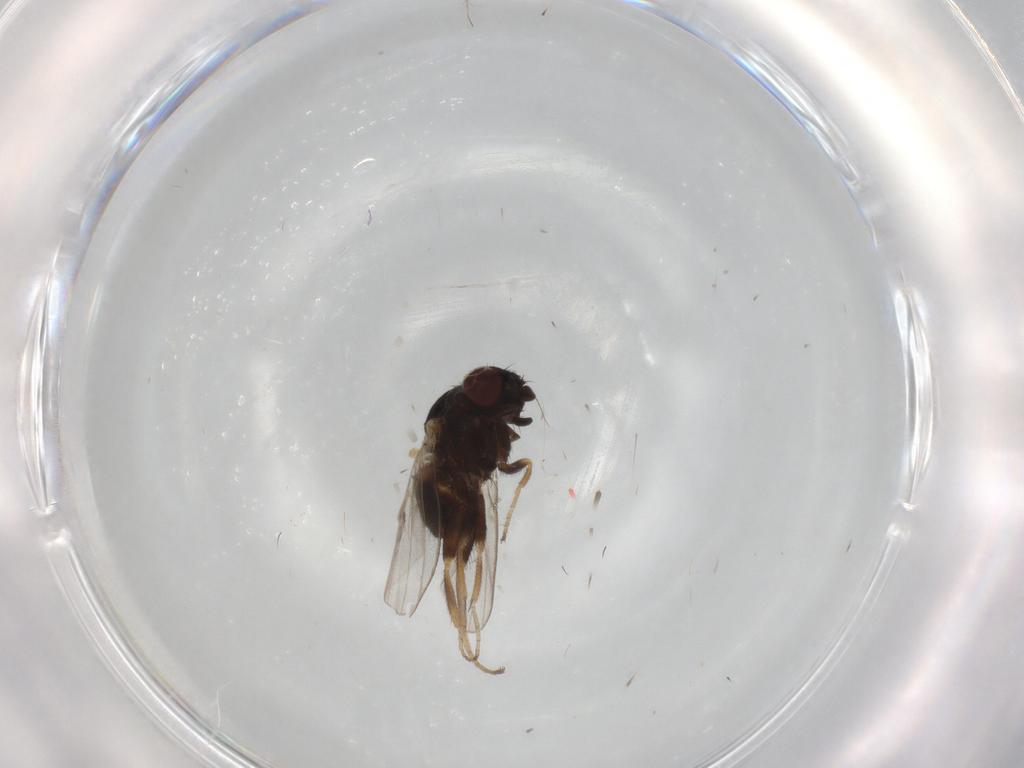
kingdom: Animalia
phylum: Arthropoda
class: Insecta
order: Diptera
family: Milichiidae
